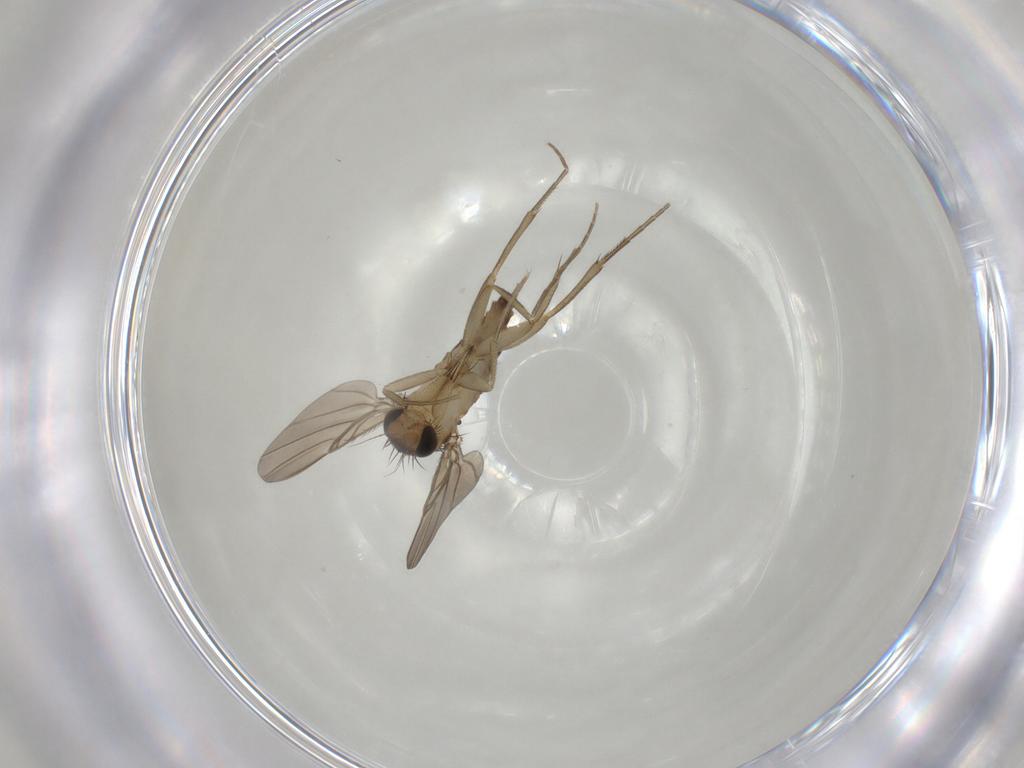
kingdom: Animalia
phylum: Arthropoda
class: Insecta
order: Diptera
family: Phoridae
